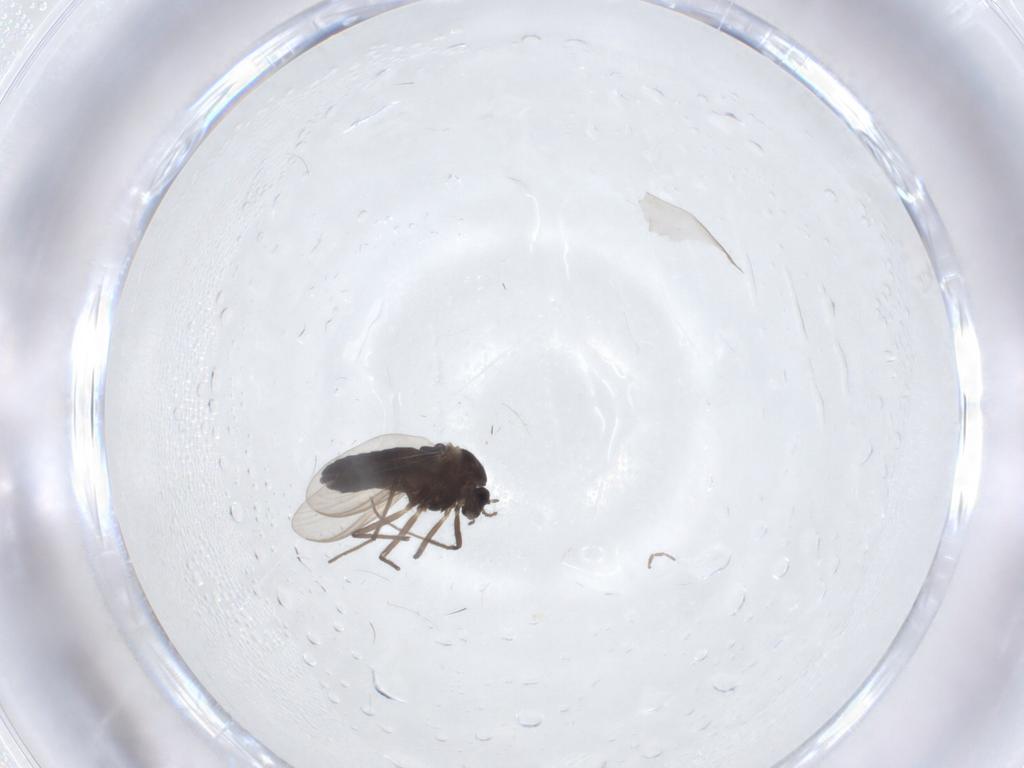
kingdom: Animalia
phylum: Arthropoda
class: Insecta
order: Diptera
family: Chironomidae
